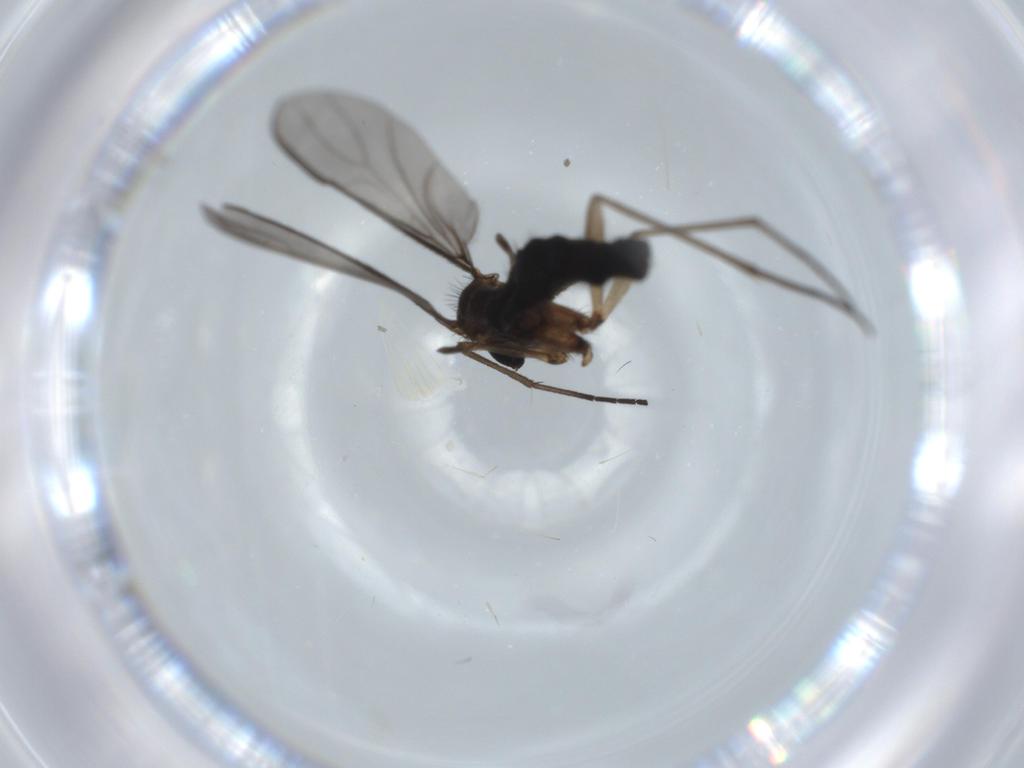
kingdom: Animalia
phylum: Arthropoda
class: Insecta
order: Diptera
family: Sciaridae
